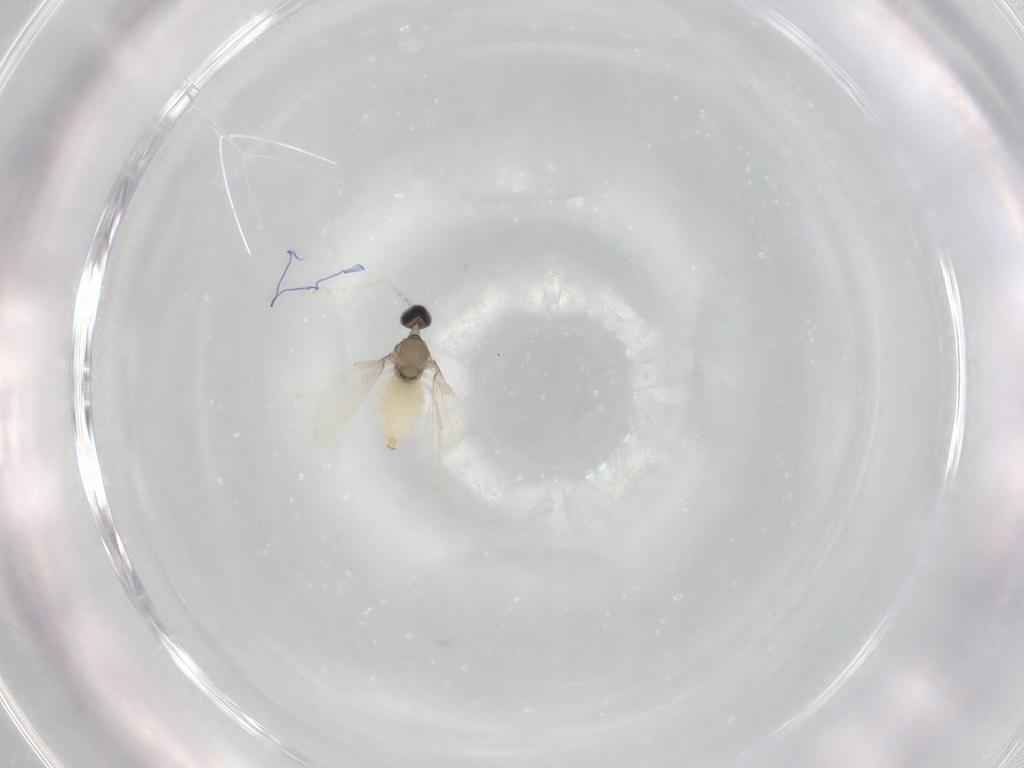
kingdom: Animalia
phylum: Arthropoda
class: Insecta
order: Diptera
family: Cecidomyiidae
